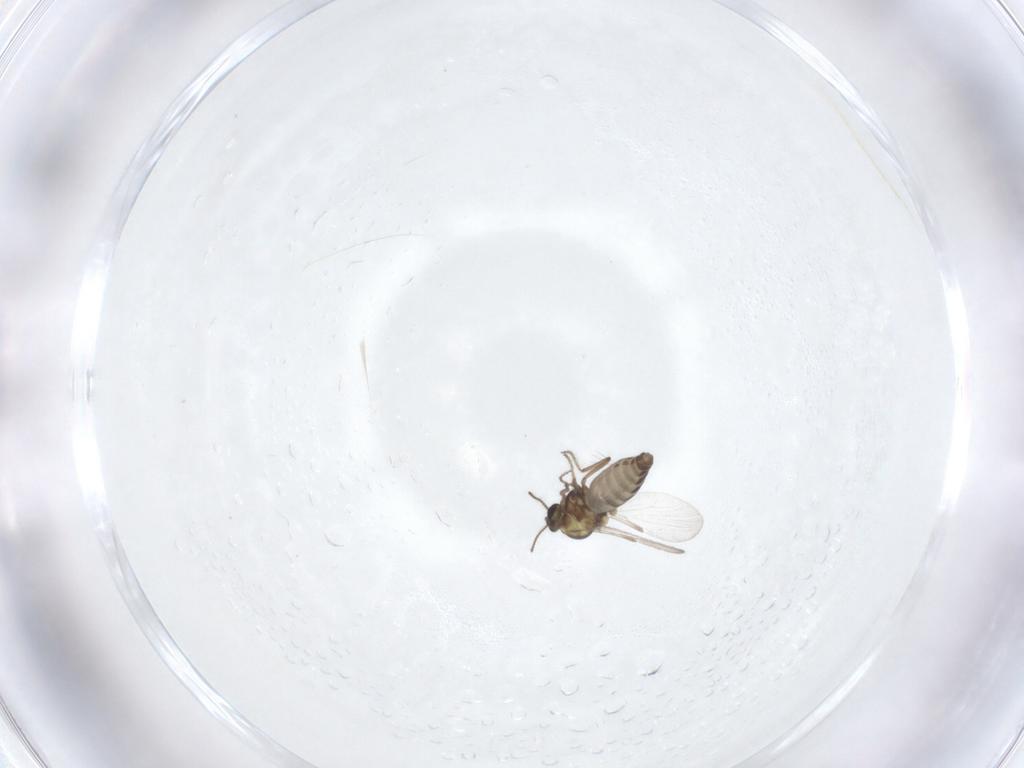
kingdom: Animalia
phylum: Arthropoda
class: Insecta
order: Diptera
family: Ceratopogonidae
